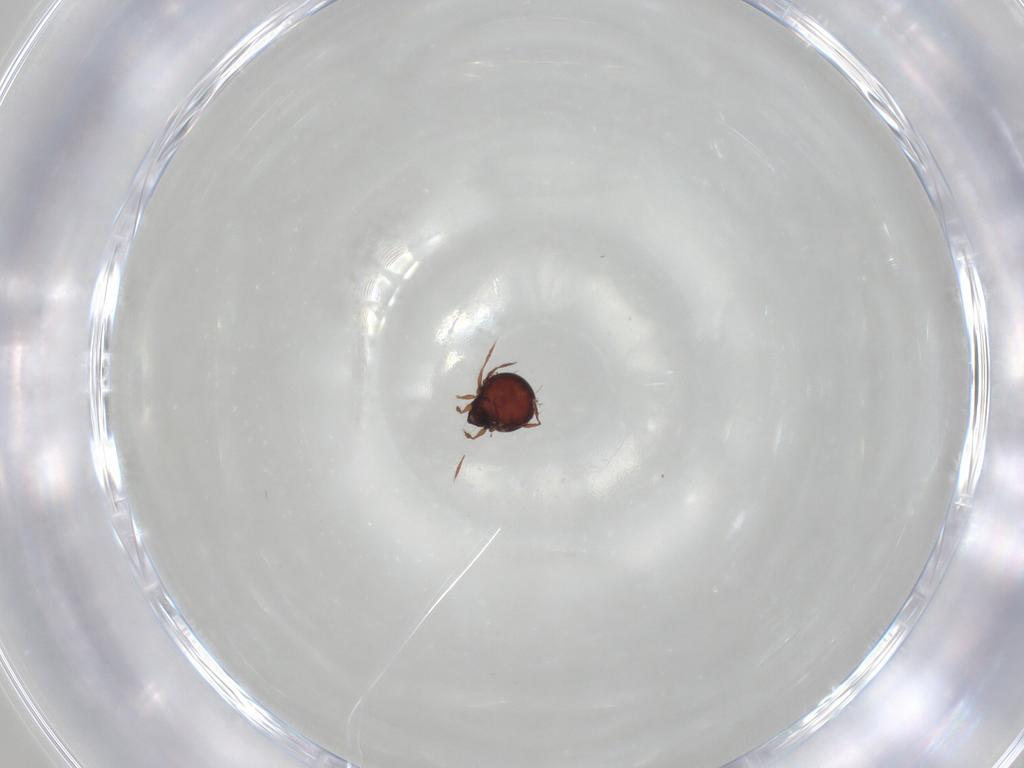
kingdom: Animalia
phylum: Arthropoda
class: Arachnida
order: Sarcoptiformes
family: Caloppiidae
